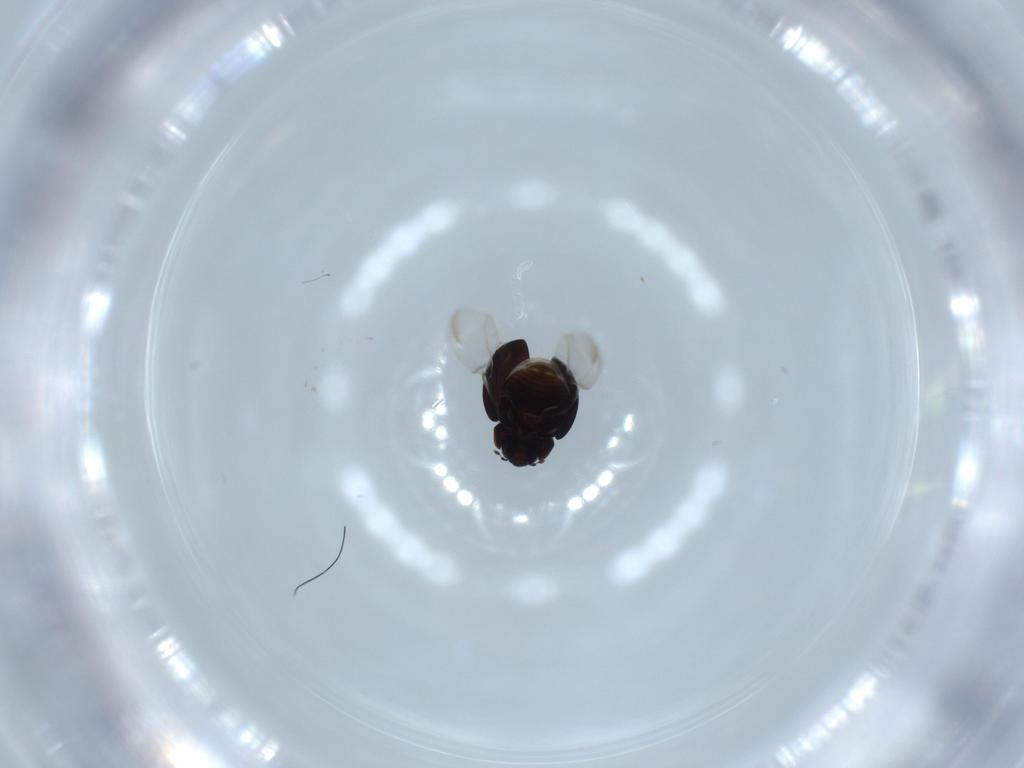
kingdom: Animalia
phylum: Arthropoda
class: Insecta
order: Coleoptera
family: Coccinellidae
